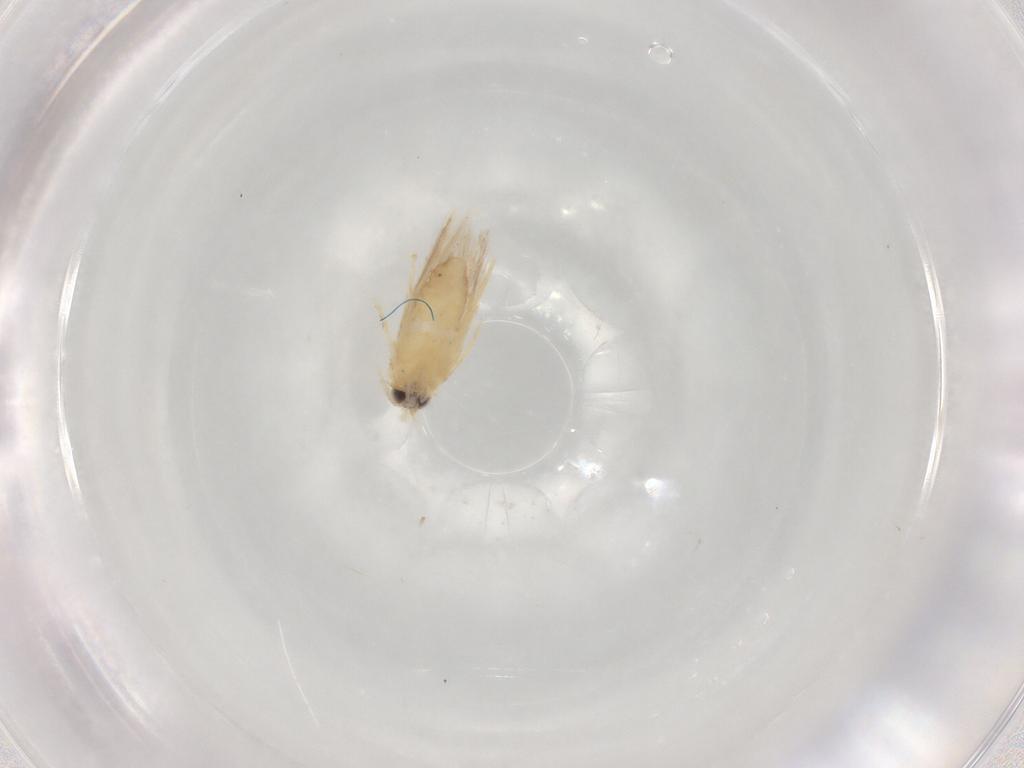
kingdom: Animalia
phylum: Arthropoda
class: Insecta
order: Lepidoptera
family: Nepticulidae
